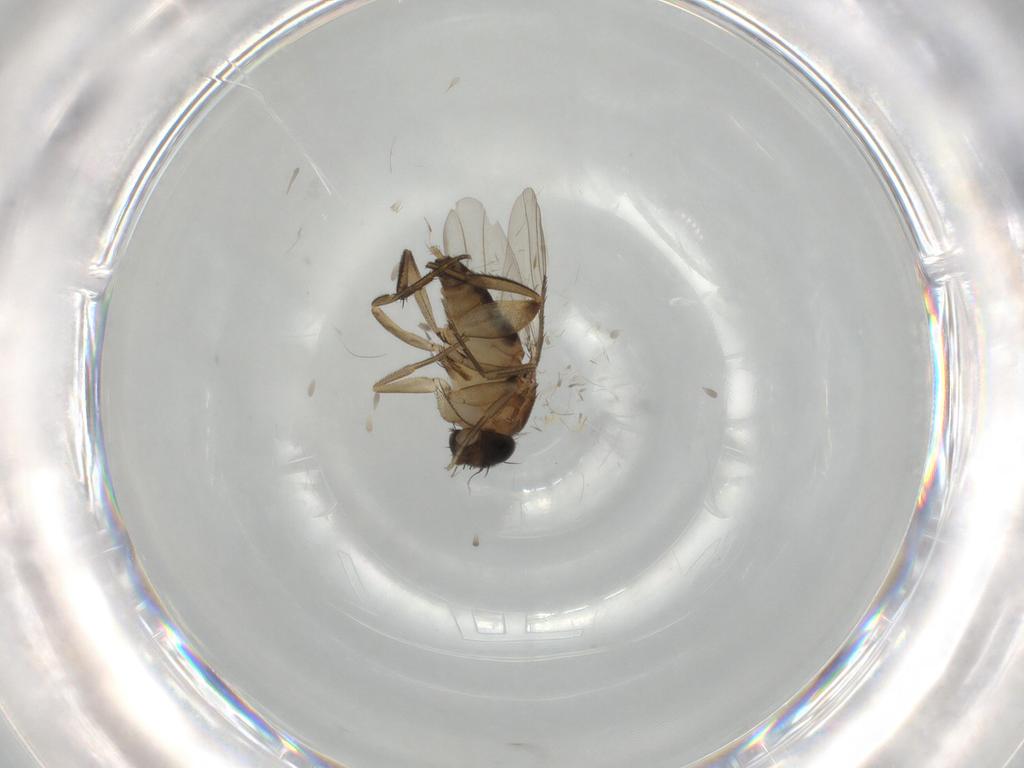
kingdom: Animalia
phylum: Arthropoda
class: Insecta
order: Diptera
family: Phoridae
